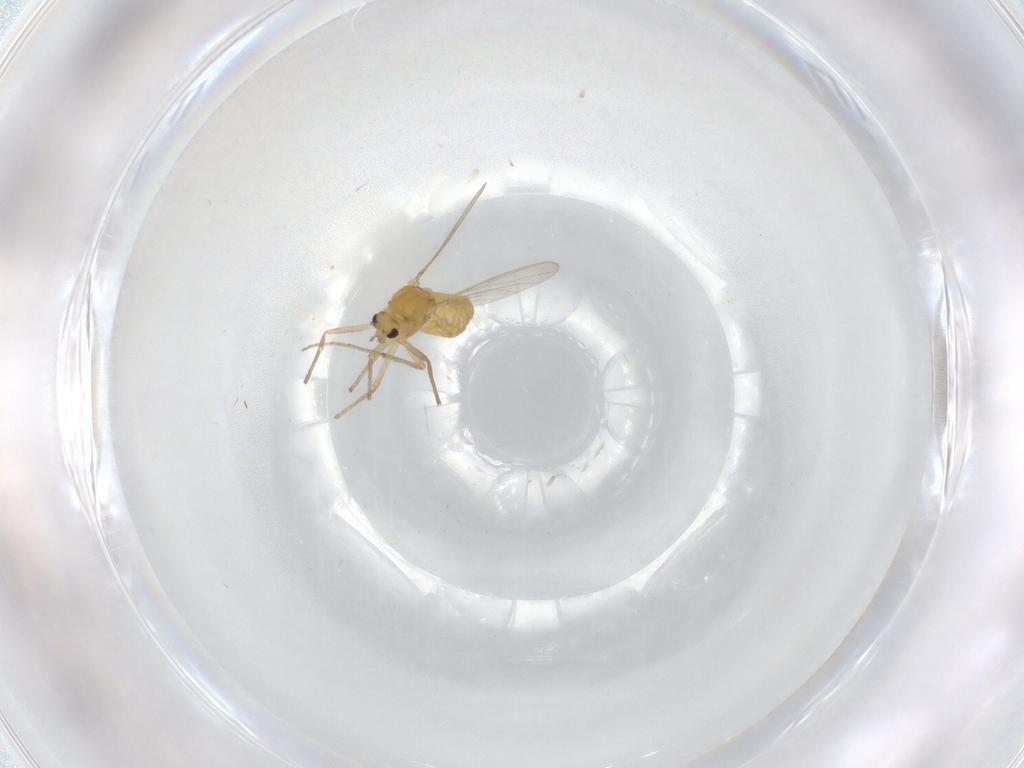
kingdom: Animalia
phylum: Arthropoda
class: Insecta
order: Diptera
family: Chironomidae
